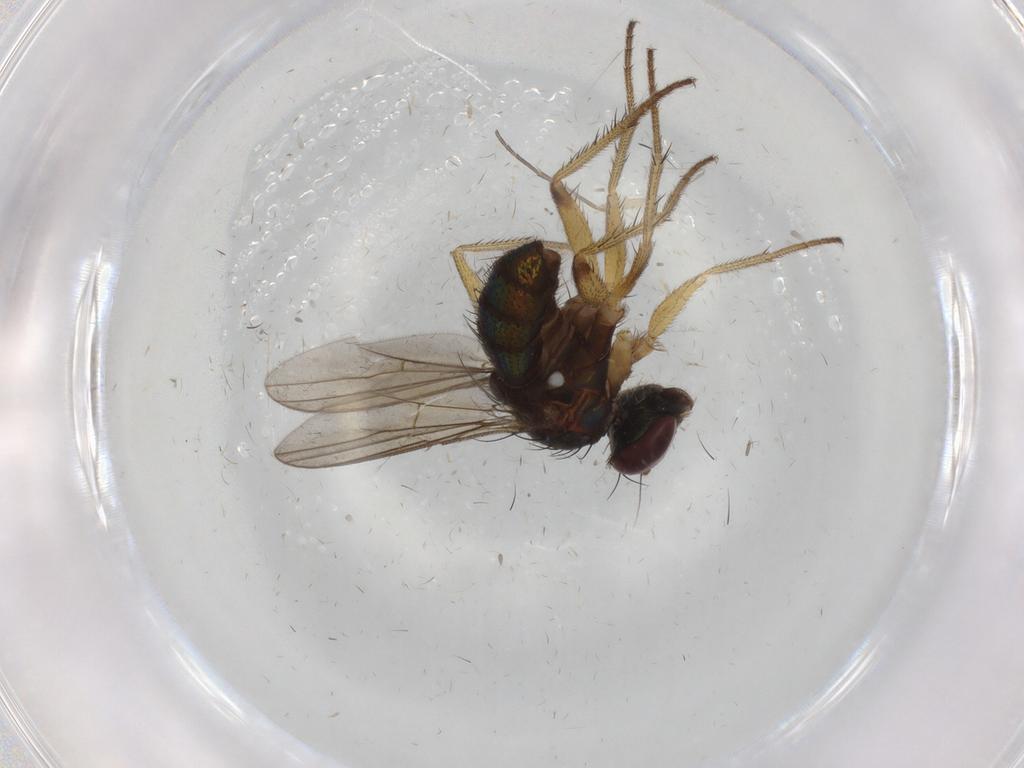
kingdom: Animalia
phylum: Arthropoda
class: Insecta
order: Diptera
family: Dolichopodidae
